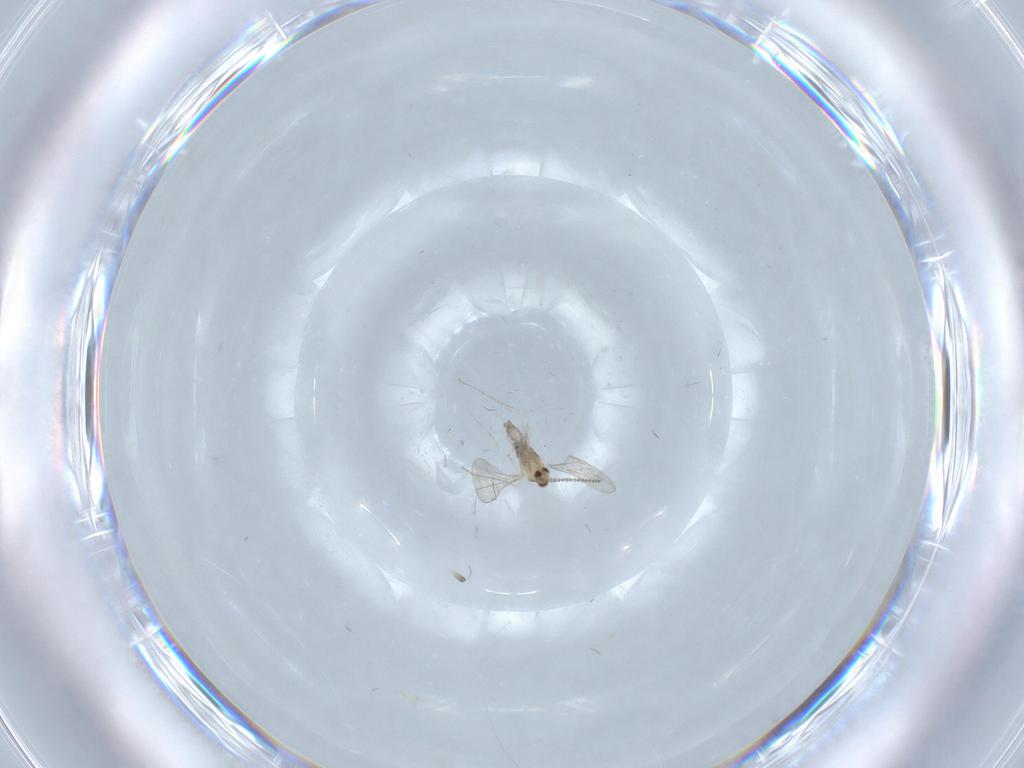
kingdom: Animalia
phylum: Arthropoda
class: Insecta
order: Diptera
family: Cecidomyiidae
